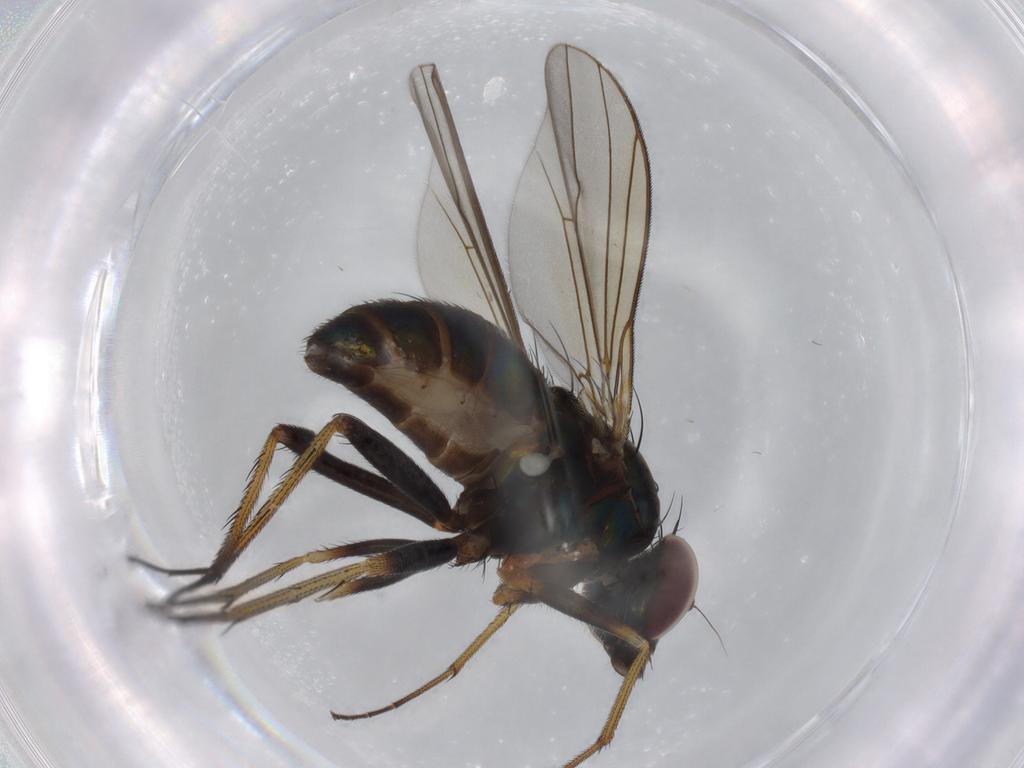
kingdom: Animalia
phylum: Arthropoda
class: Insecta
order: Diptera
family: Dolichopodidae
